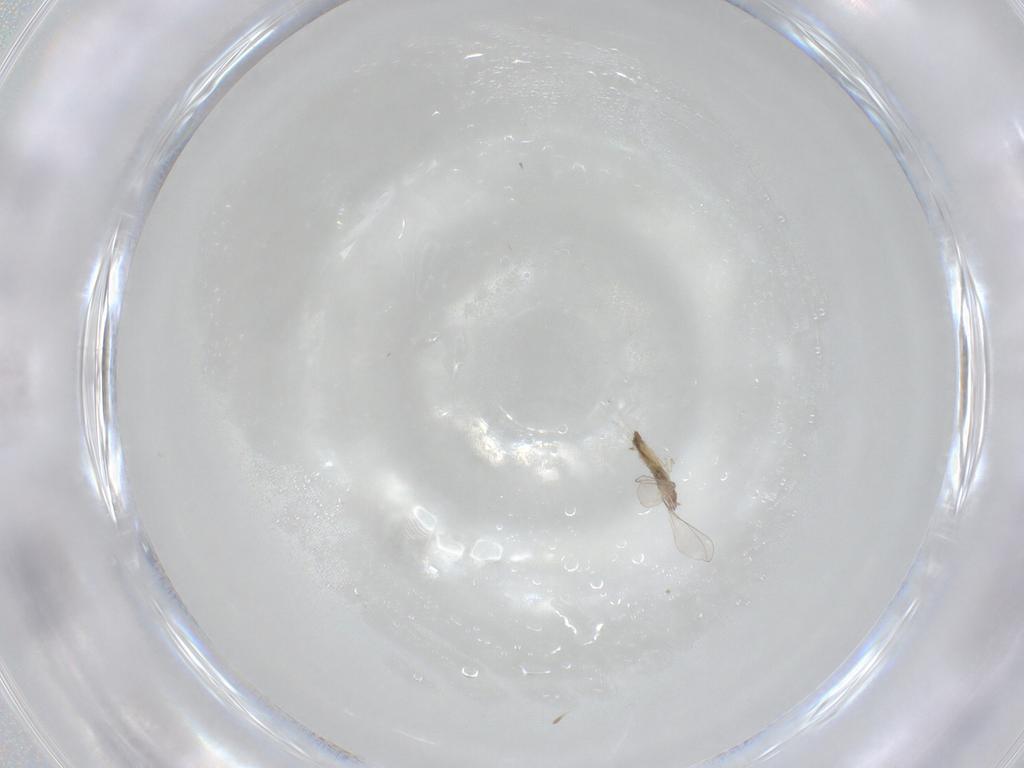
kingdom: Animalia
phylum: Arthropoda
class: Insecta
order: Diptera
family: Cecidomyiidae
